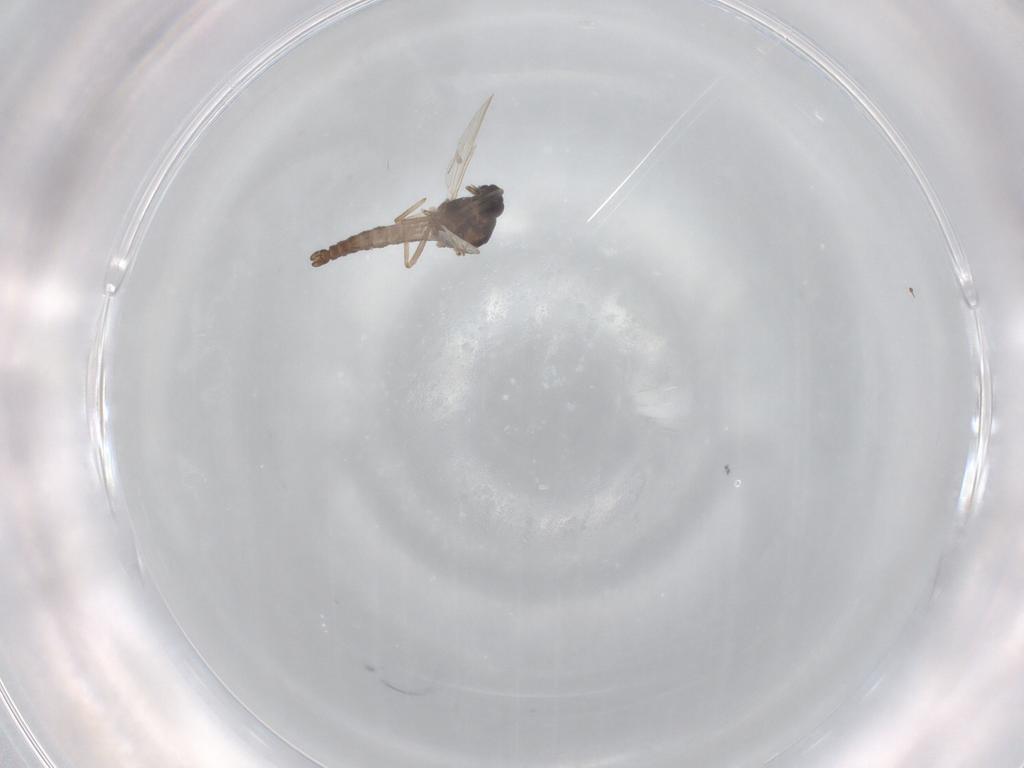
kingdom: Animalia
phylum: Arthropoda
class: Insecta
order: Diptera
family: Ceratopogonidae
